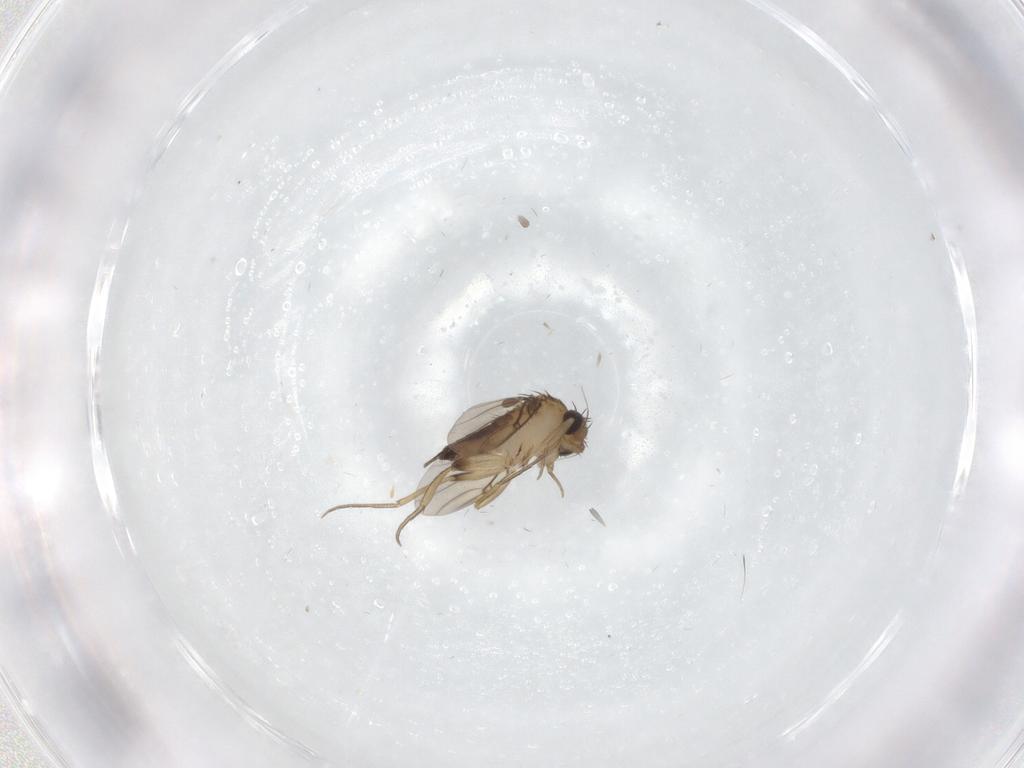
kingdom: Animalia
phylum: Arthropoda
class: Insecta
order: Diptera
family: Phoridae
